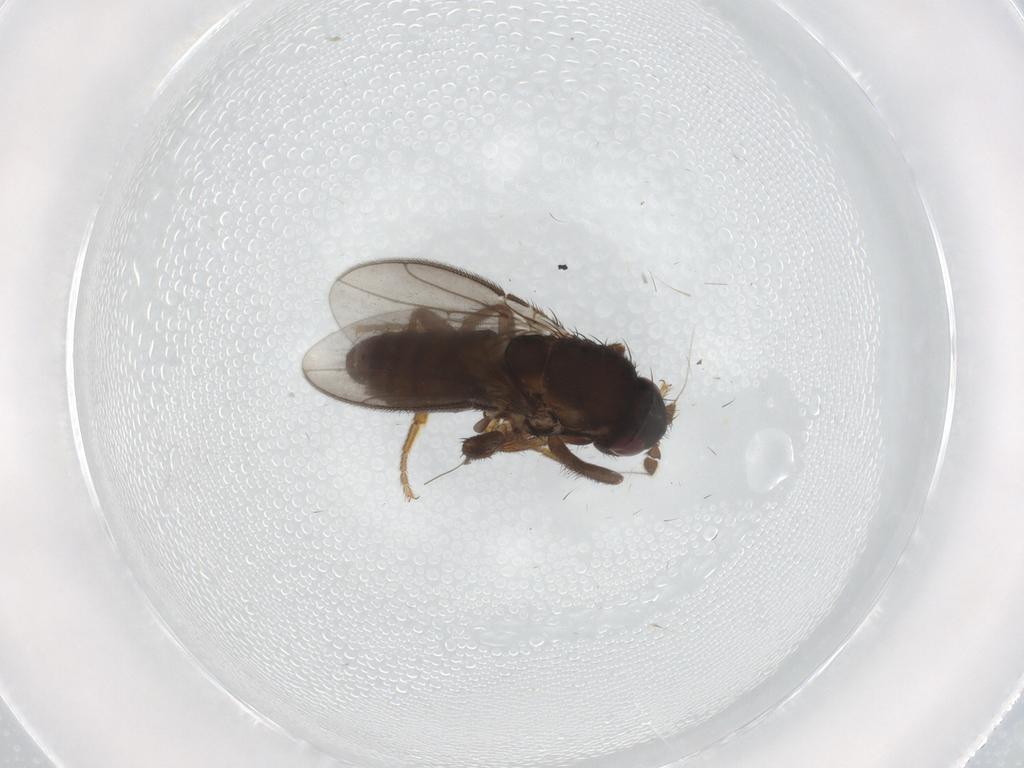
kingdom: Animalia
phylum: Arthropoda
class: Insecta
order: Diptera
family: Sphaeroceridae
